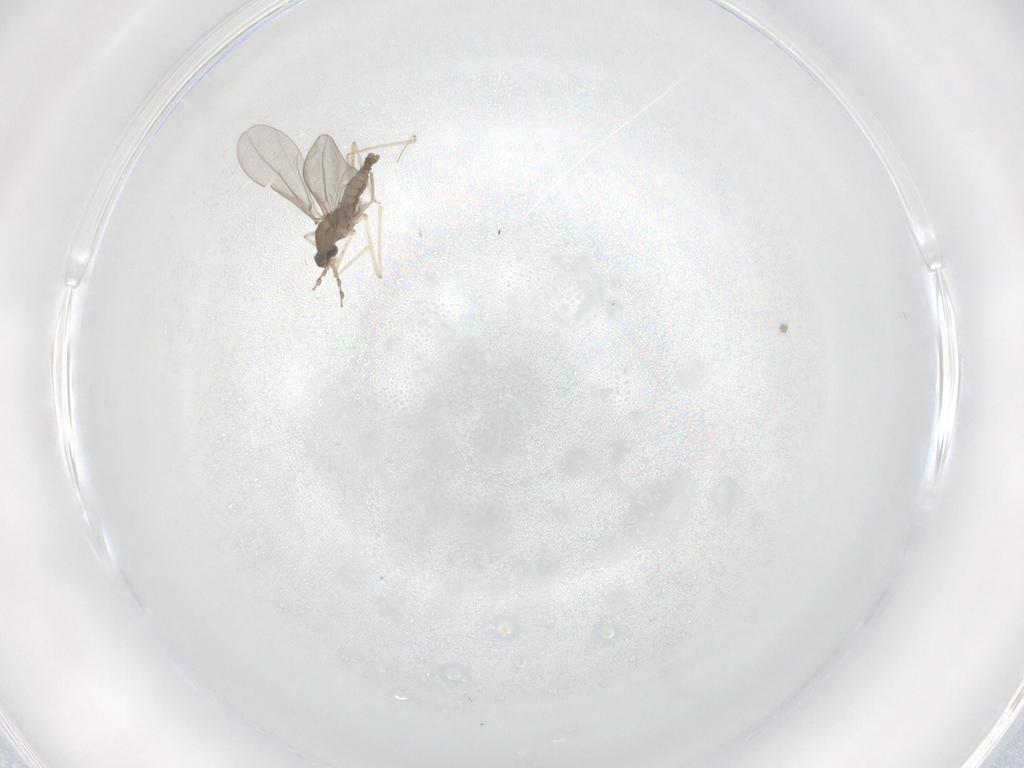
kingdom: Animalia
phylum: Arthropoda
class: Insecta
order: Diptera
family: Cecidomyiidae
